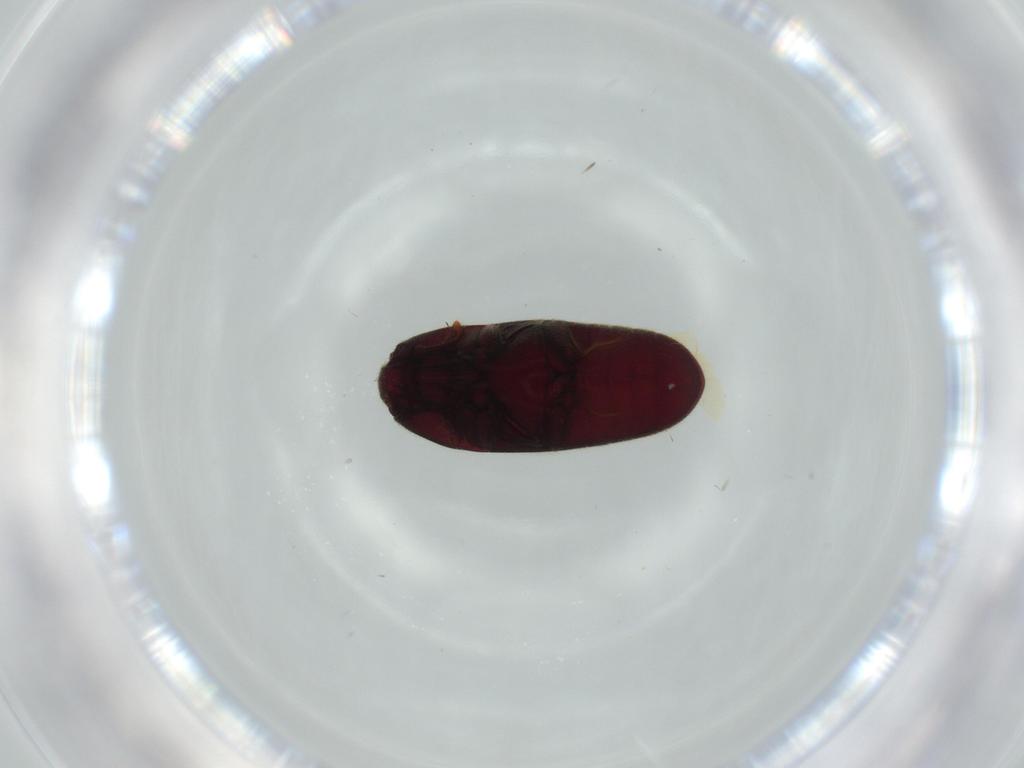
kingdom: Animalia
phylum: Arthropoda
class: Insecta
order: Coleoptera
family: Throscidae
